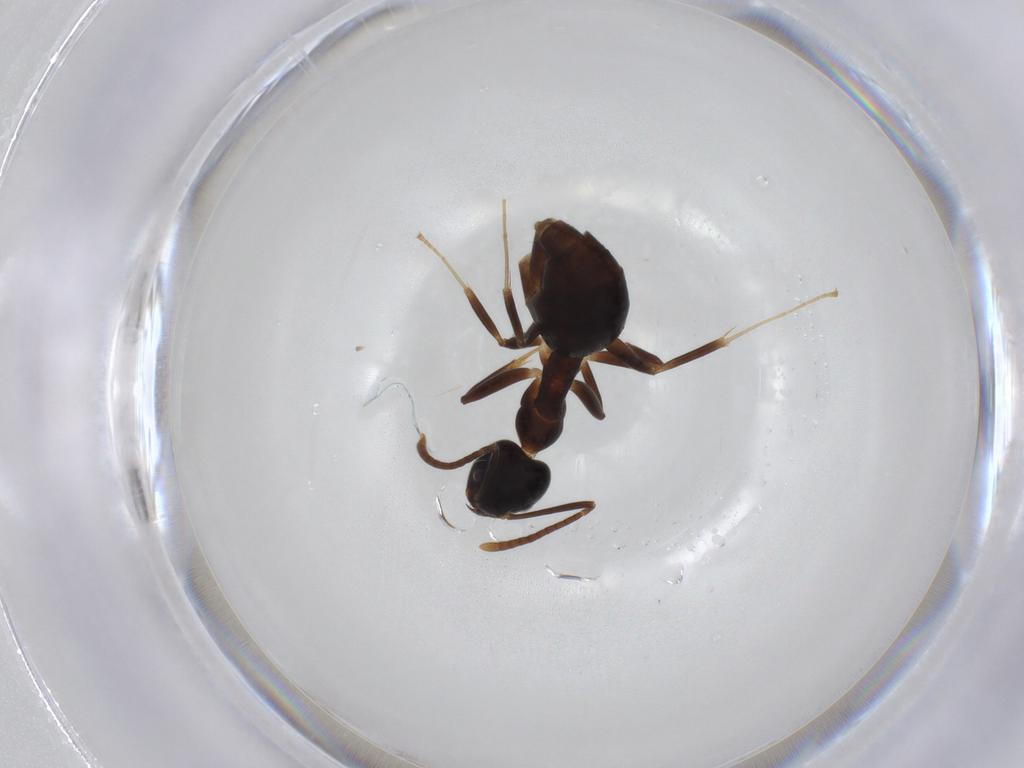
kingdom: Animalia
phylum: Arthropoda
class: Insecta
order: Hymenoptera
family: Formicidae
